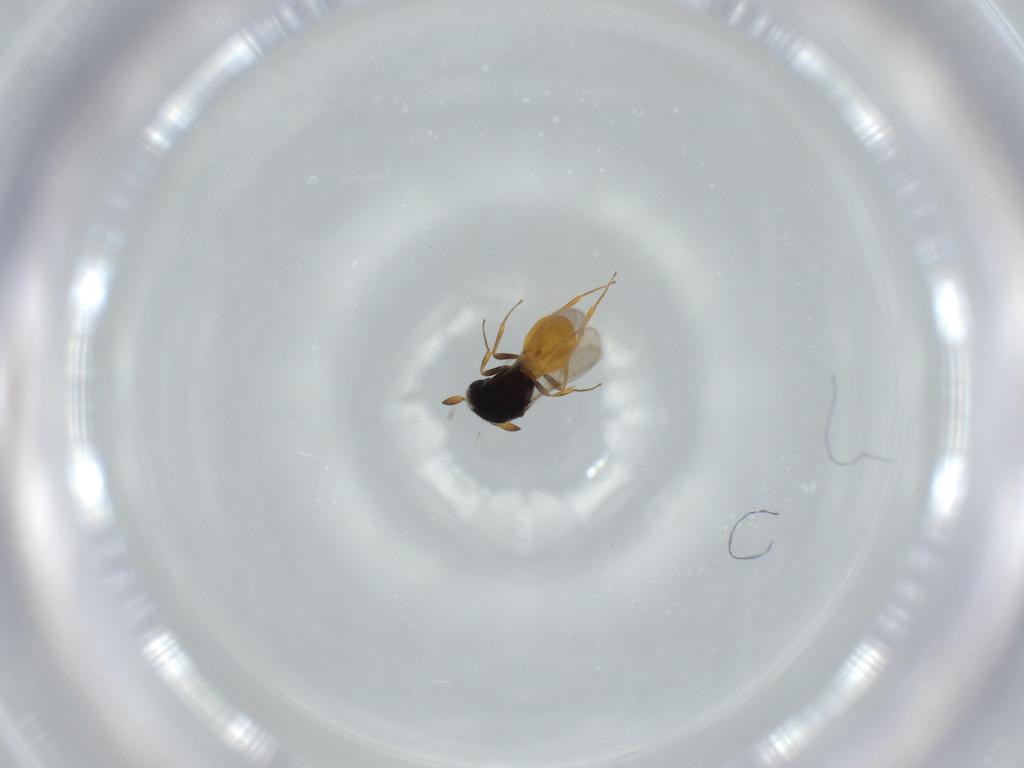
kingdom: Animalia
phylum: Arthropoda
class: Insecta
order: Hymenoptera
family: Scelionidae
